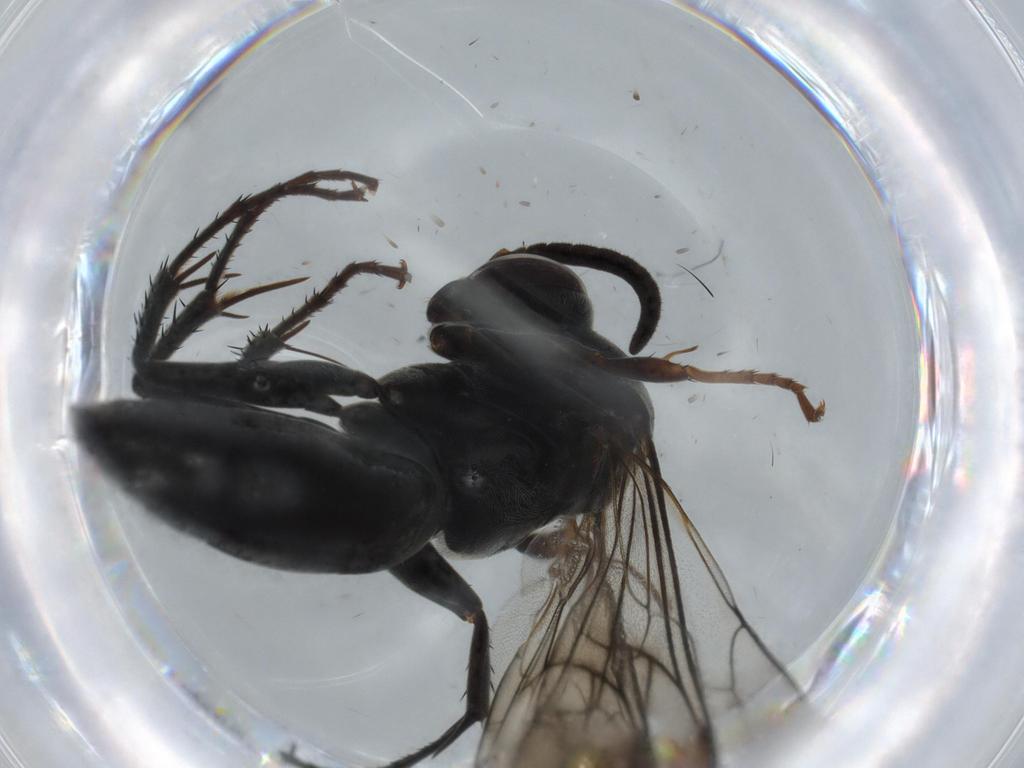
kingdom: Animalia
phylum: Arthropoda
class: Insecta
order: Hymenoptera
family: Pompilidae
